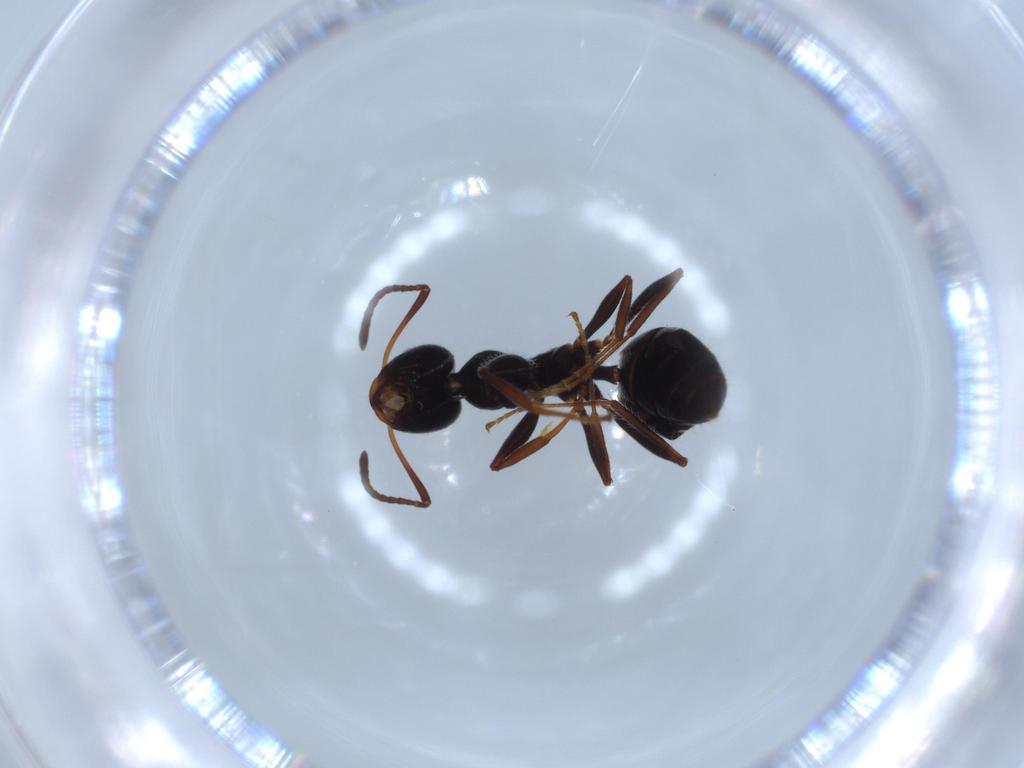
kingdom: Animalia
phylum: Arthropoda
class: Insecta
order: Hymenoptera
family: Formicidae
